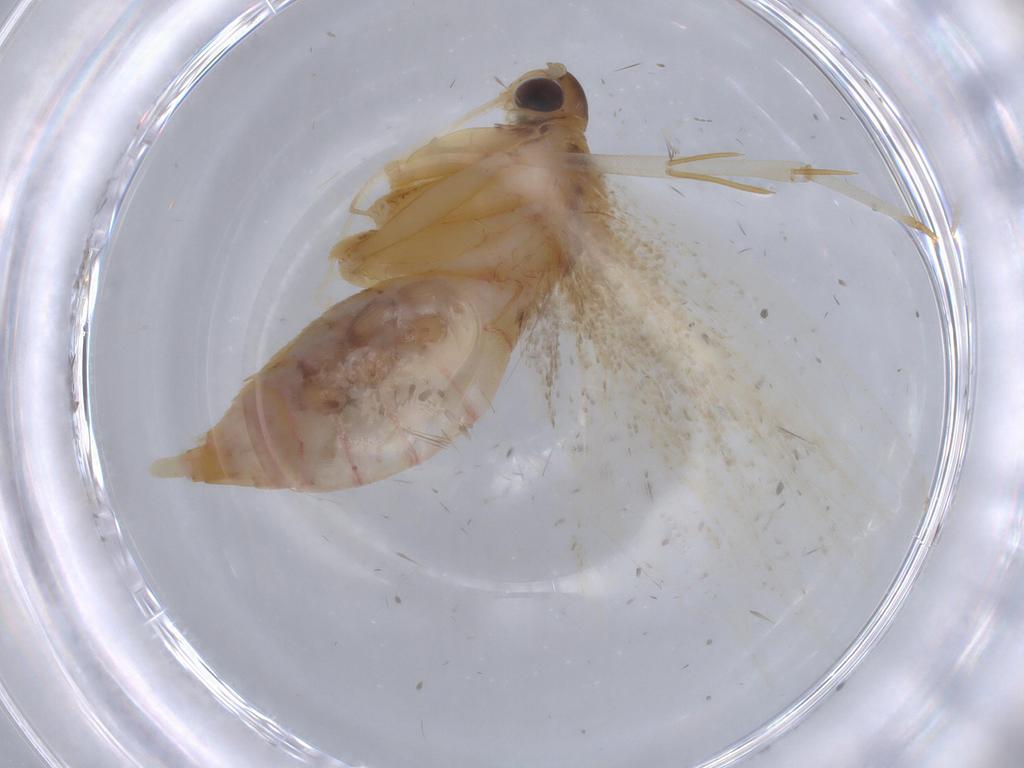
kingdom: Animalia
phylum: Arthropoda
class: Insecta
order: Lepidoptera
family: Lecithoceridae
